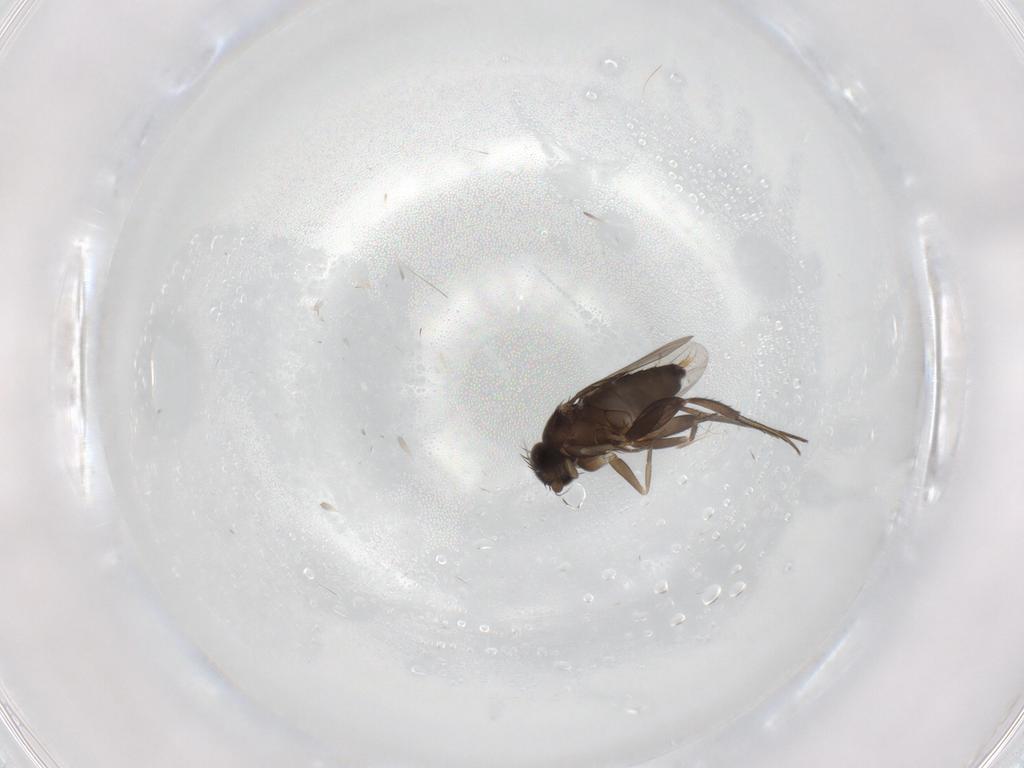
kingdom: Animalia
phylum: Arthropoda
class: Insecta
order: Diptera
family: Phoridae
